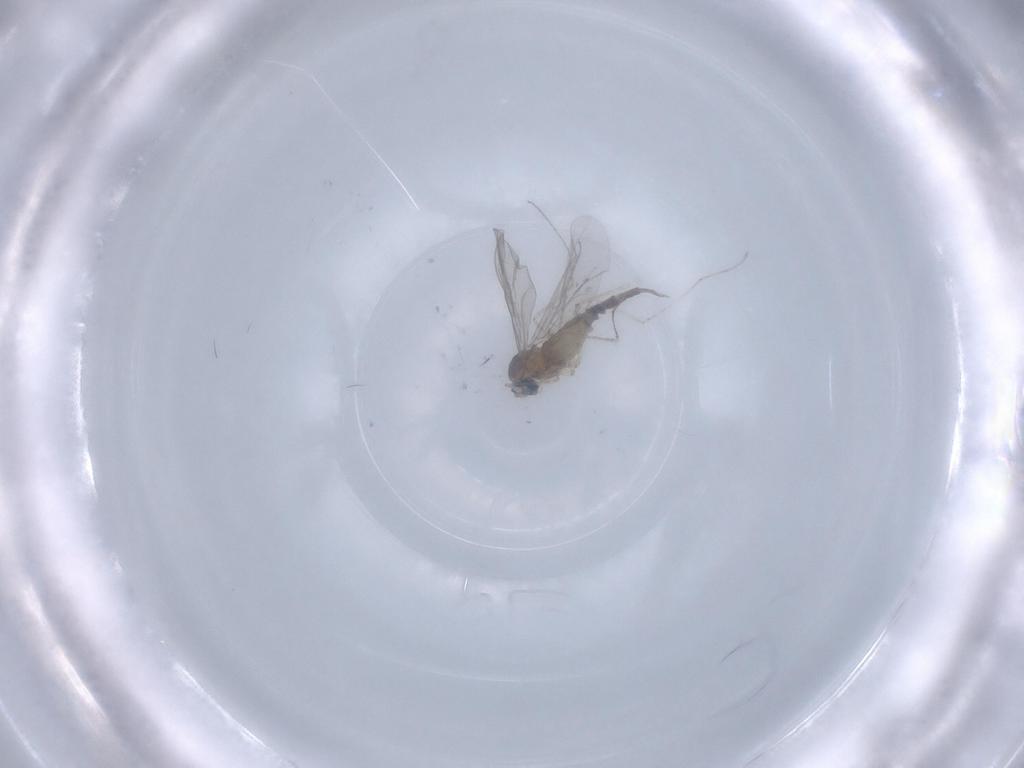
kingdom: Animalia
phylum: Arthropoda
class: Insecta
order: Diptera
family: Cecidomyiidae
